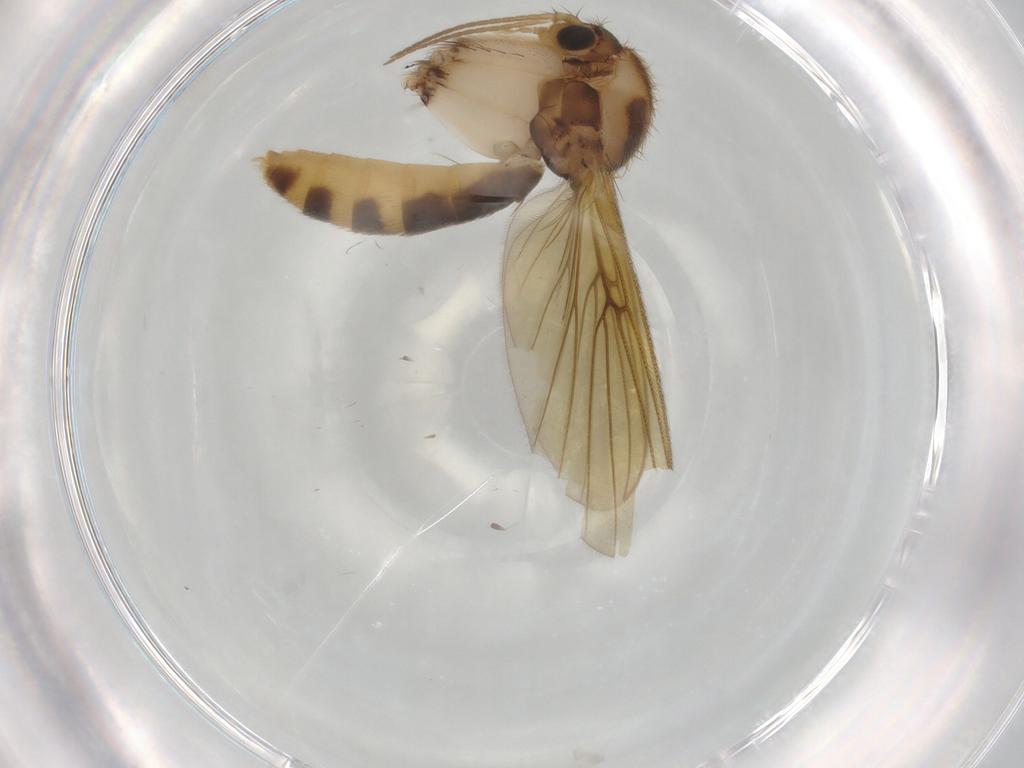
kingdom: Animalia
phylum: Arthropoda
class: Insecta
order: Diptera
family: Mycetophilidae
